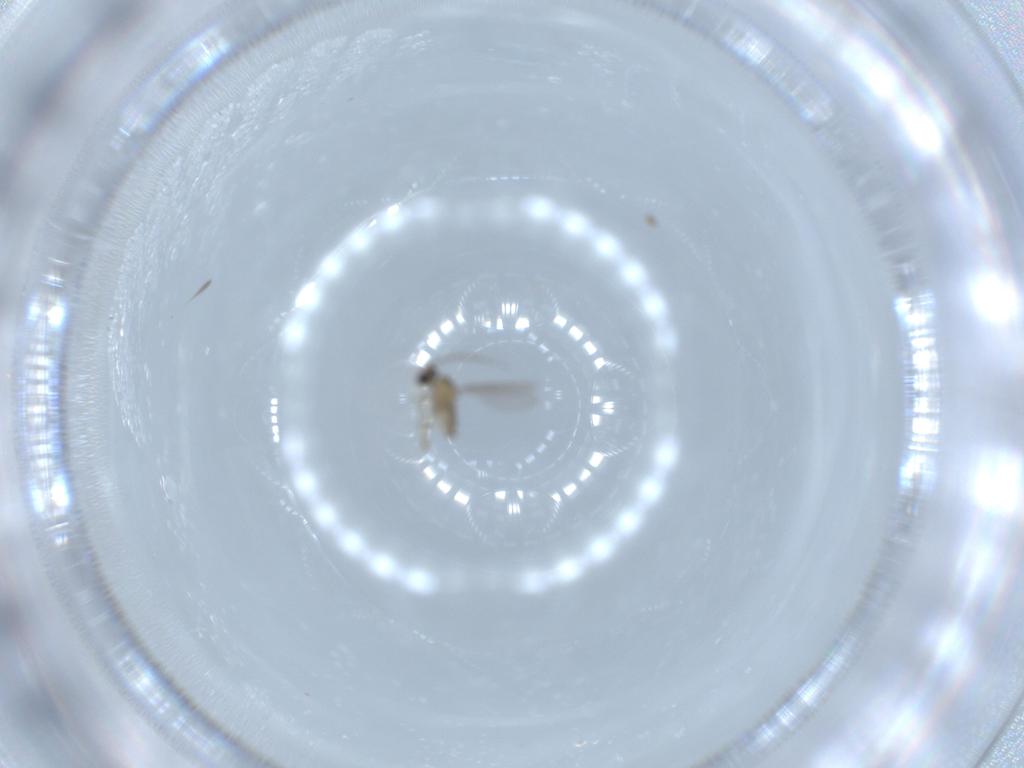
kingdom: Animalia
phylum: Arthropoda
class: Insecta
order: Diptera
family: Cecidomyiidae
